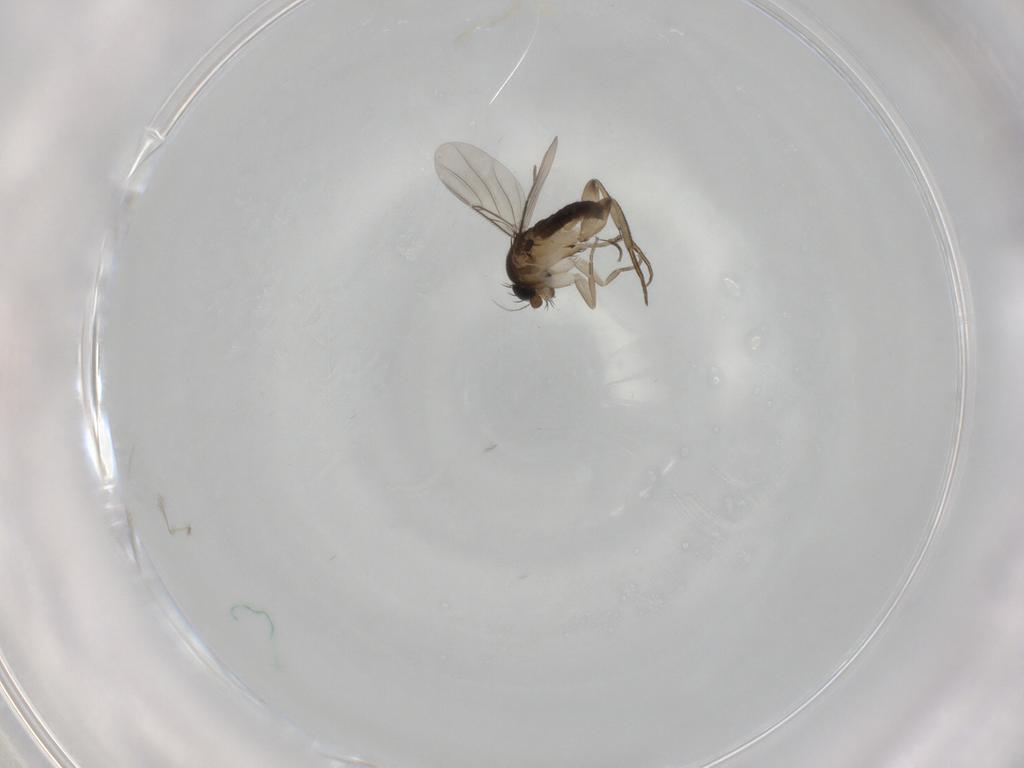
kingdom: Animalia
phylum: Arthropoda
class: Insecta
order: Diptera
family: Phoridae
